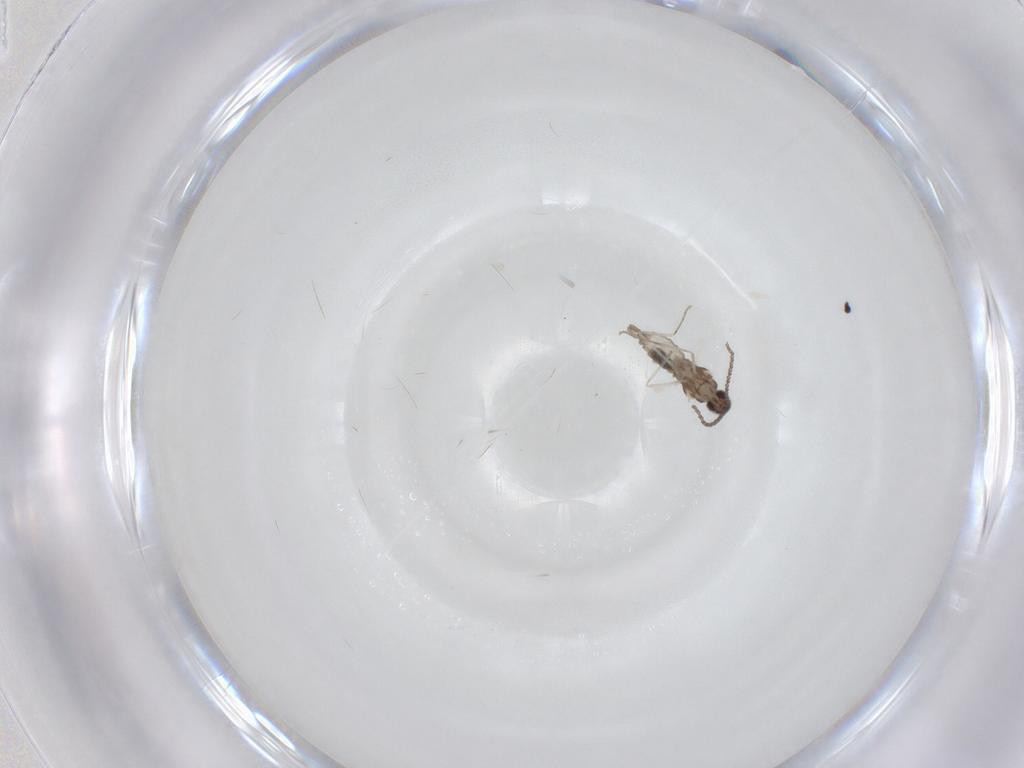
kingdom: Animalia
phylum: Arthropoda
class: Insecta
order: Diptera
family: Cecidomyiidae
